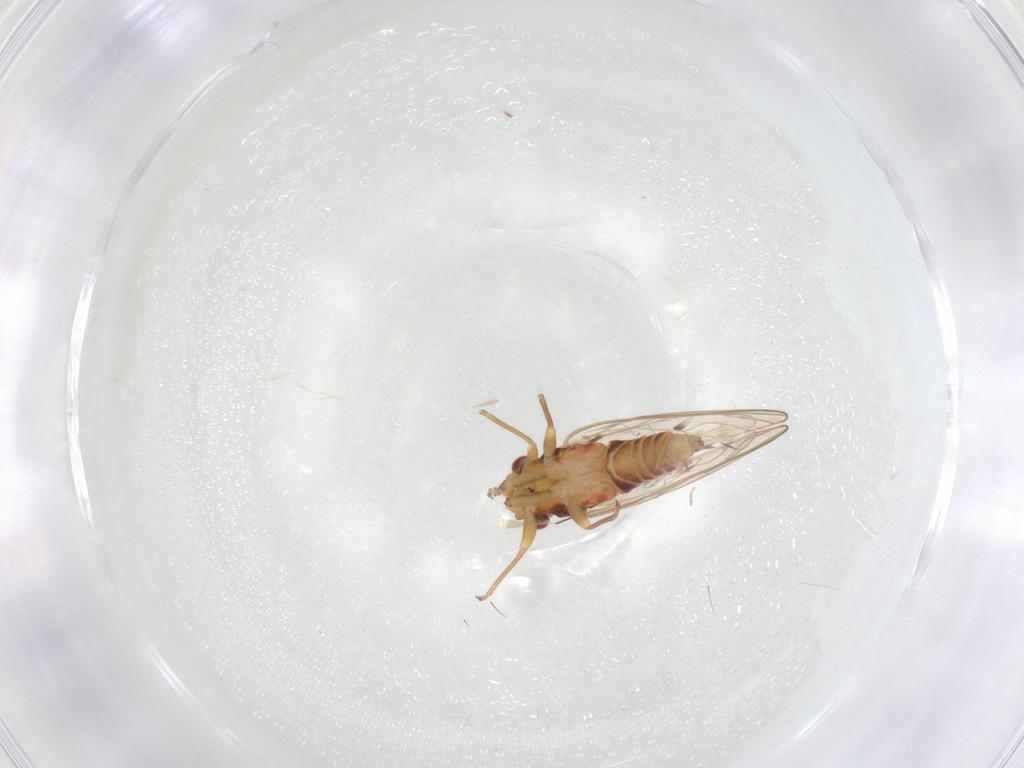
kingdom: Animalia
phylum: Arthropoda
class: Insecta
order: Hemiptera
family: Psyllidae
